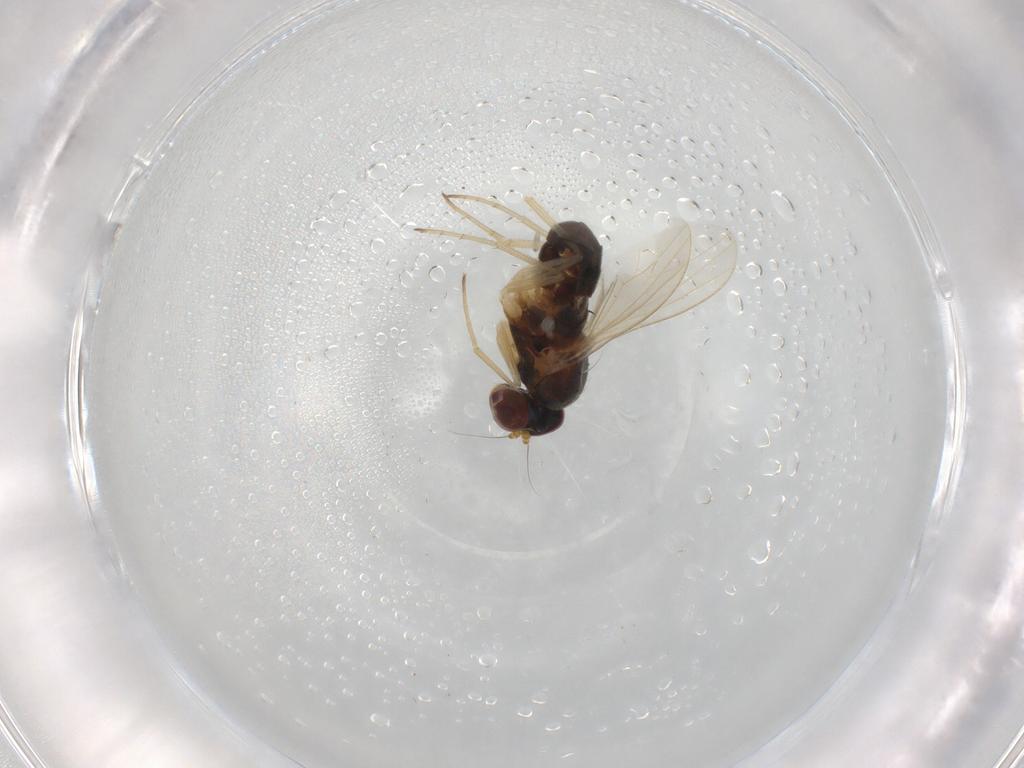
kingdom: Animalia
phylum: Arthropoda
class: Insecta
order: Diptera
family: Dolichopodidae
